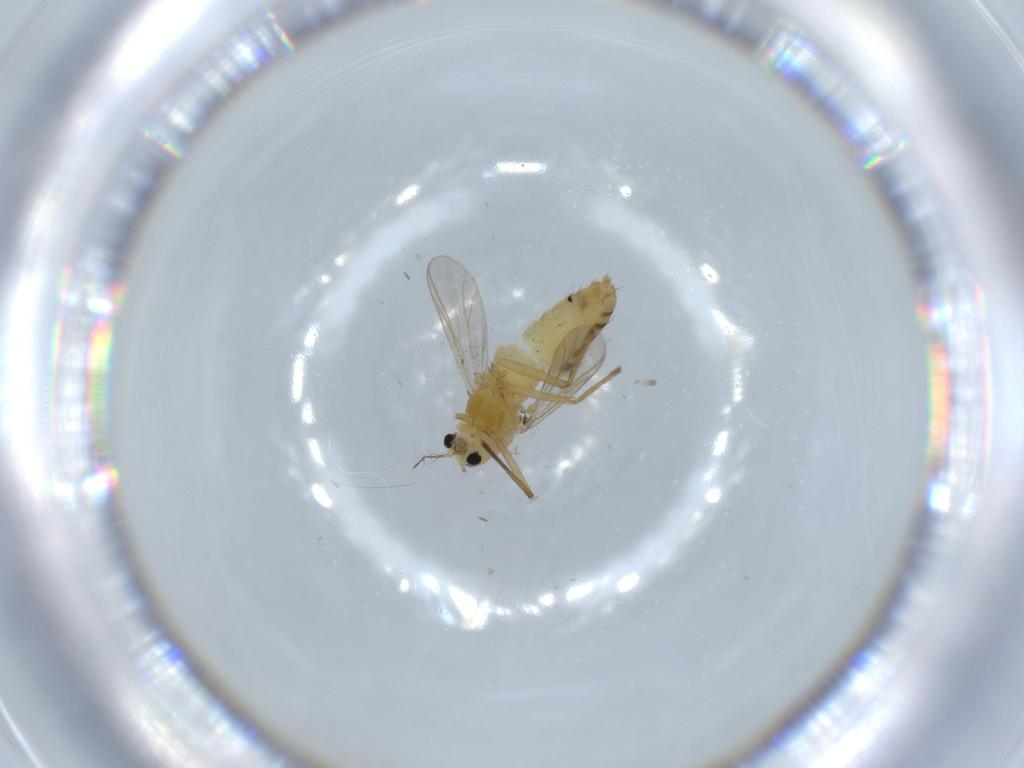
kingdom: Animalia
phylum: Arthropoda
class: Insecta
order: Diptera
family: Chironomidae
